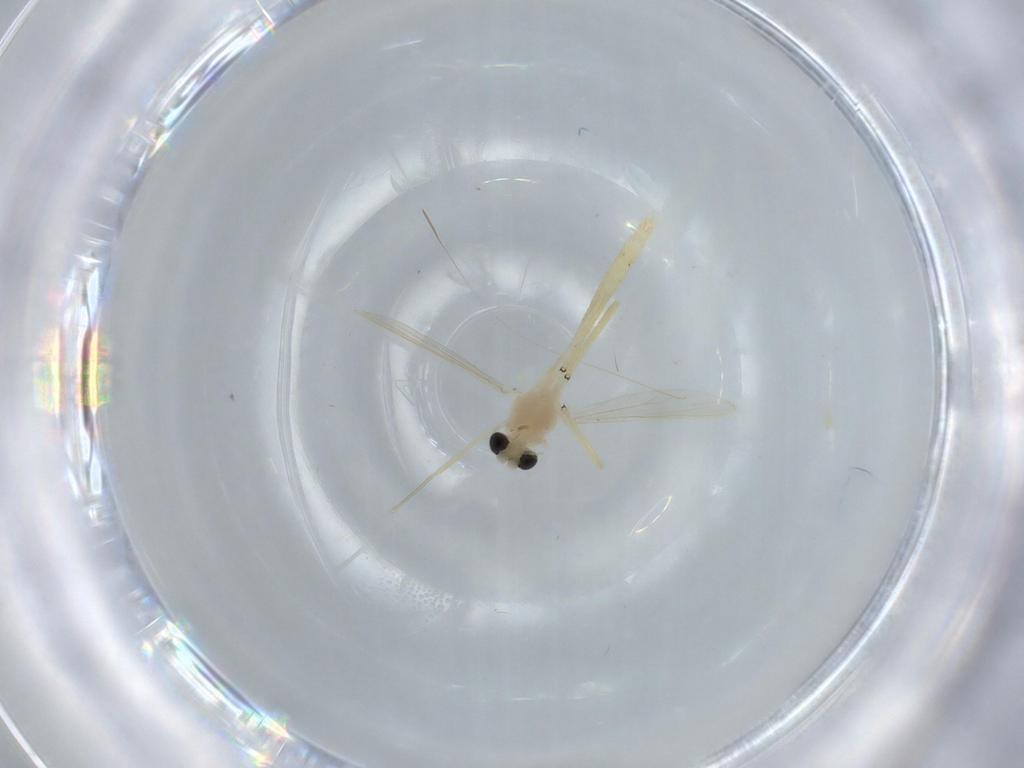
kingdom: Animalia
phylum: Arthropoda
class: Insecta
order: Diptera
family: Cecidomyiidae
